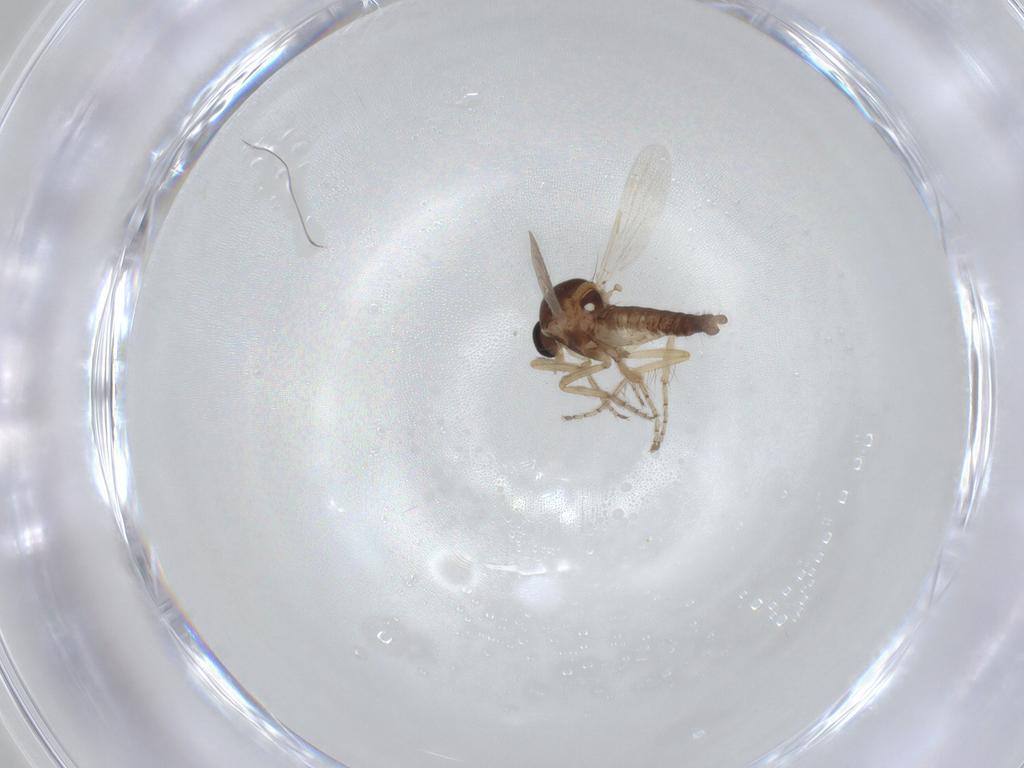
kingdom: Animalia
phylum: Arthropoda
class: Insecta
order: Diptera
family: Ceratopogonidae
